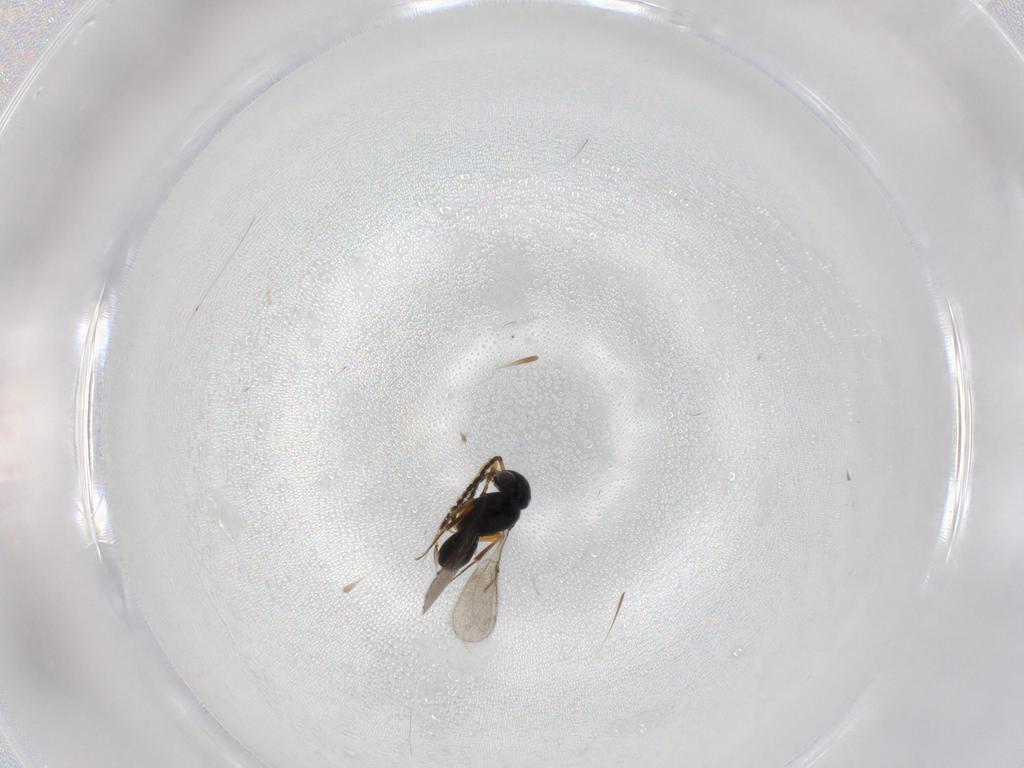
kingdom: Animalia
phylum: Arthropoda
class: Insecta
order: Hymenoptera
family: Scelionidae
